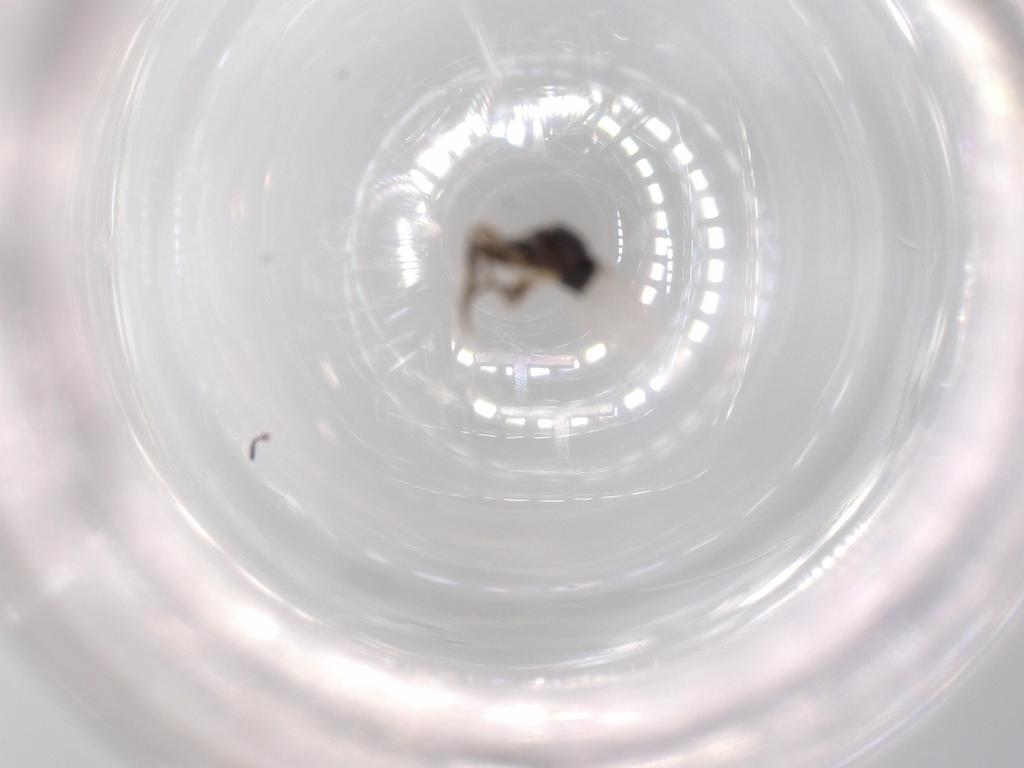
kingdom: Animalia
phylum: Arthropoda
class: Insecta
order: Diptera
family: Phoridae
